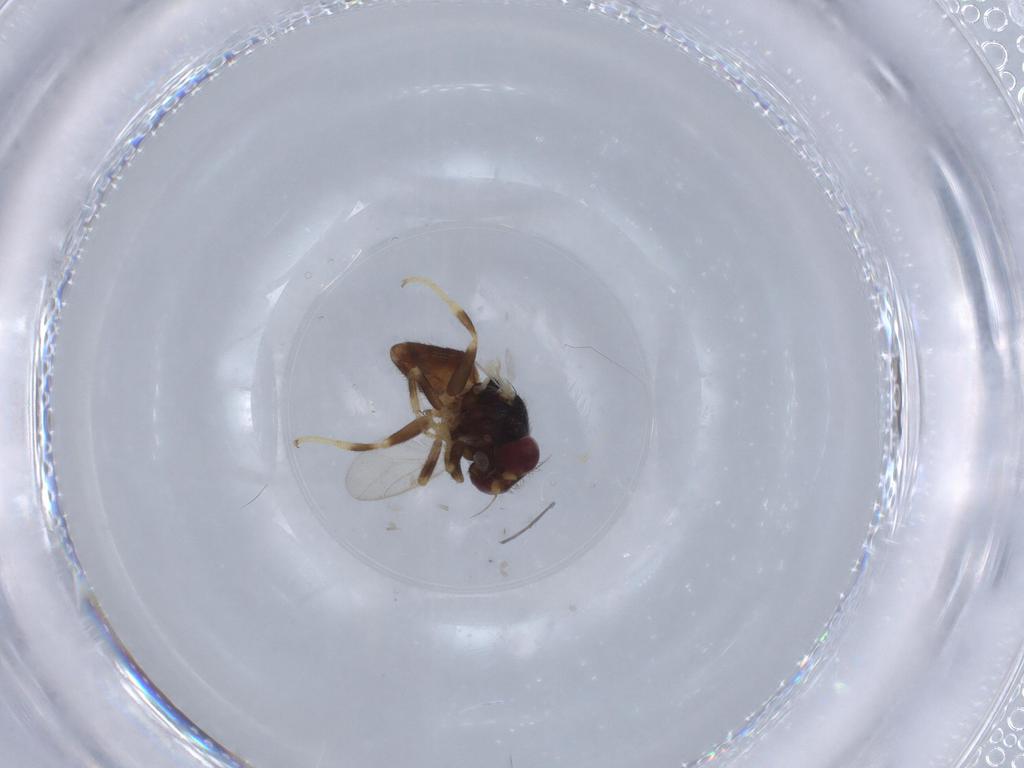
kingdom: Animalia
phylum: Arthropoda
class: Insecta
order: Diptera
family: Chloropidae
